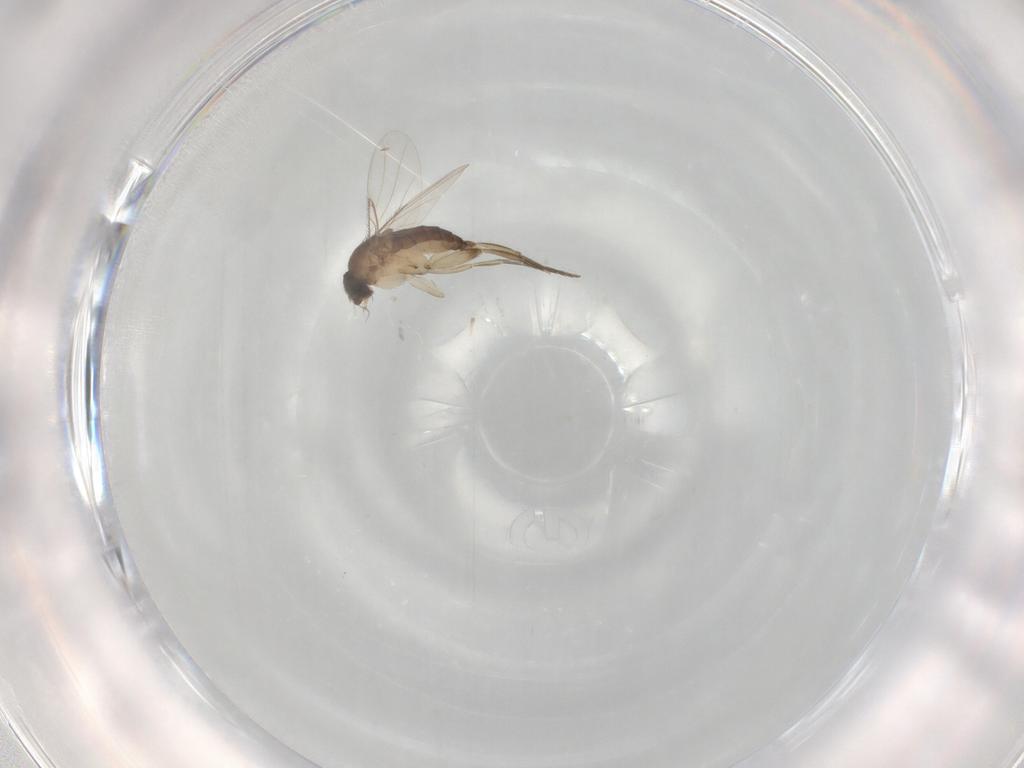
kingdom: Animalia
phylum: Arthropoda
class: Insecta
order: Diptera
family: Phoridae
